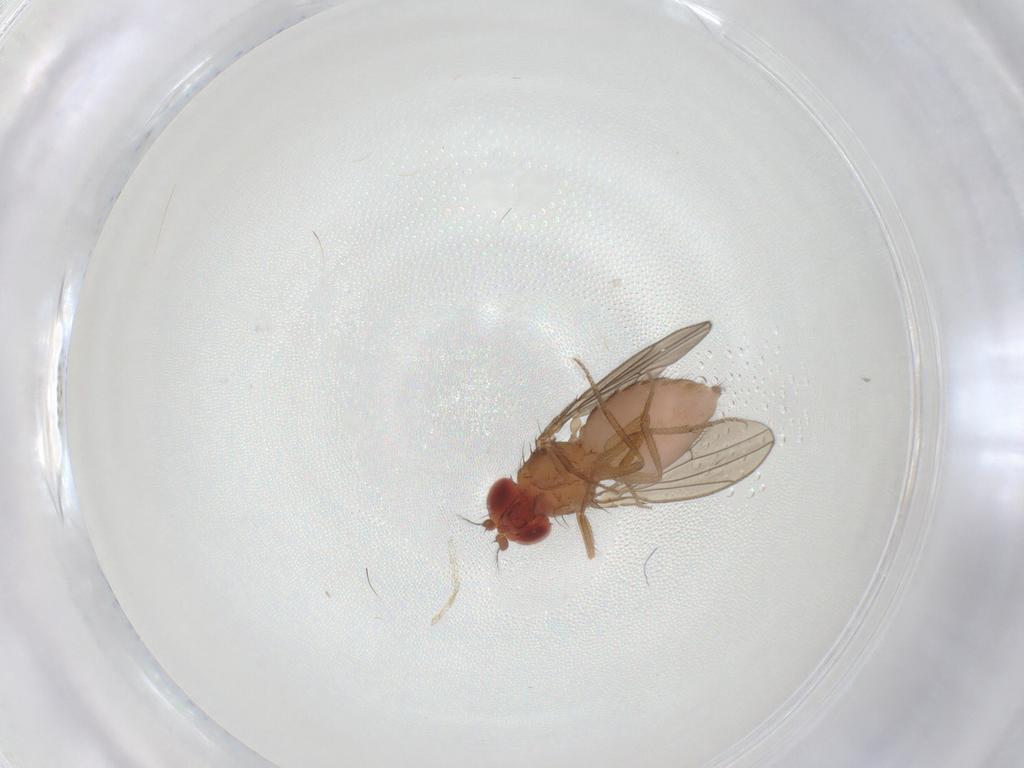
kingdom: Animalia
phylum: Arthropoda
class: Insecta
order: Diptera
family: Drosophilidae
